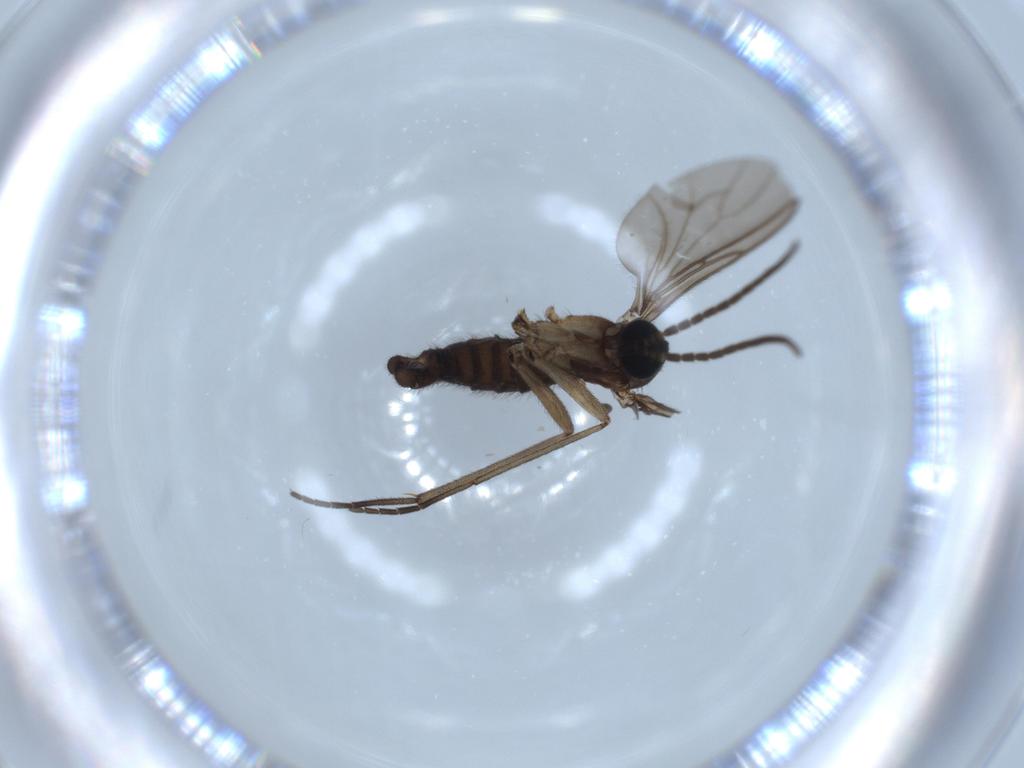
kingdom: Animalia
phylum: Arthropoda
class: Insecta
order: Diptera
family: Sciaridae
